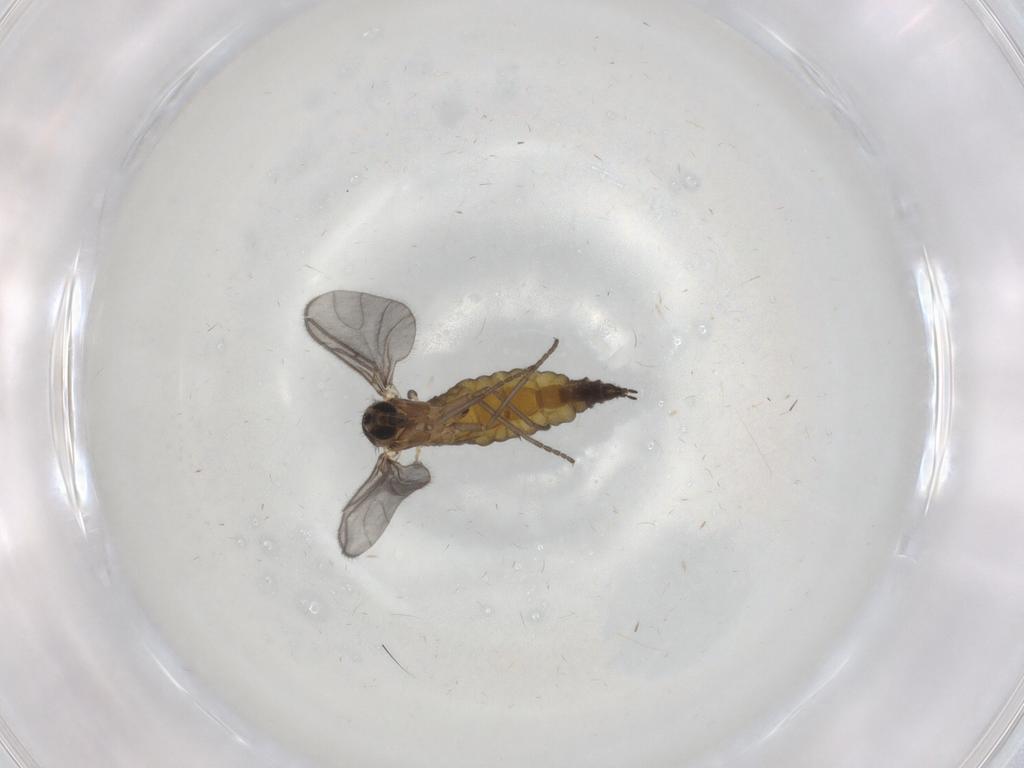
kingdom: Animalia
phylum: Arthropoda
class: Insecta
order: Diptera
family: Sciaridae
